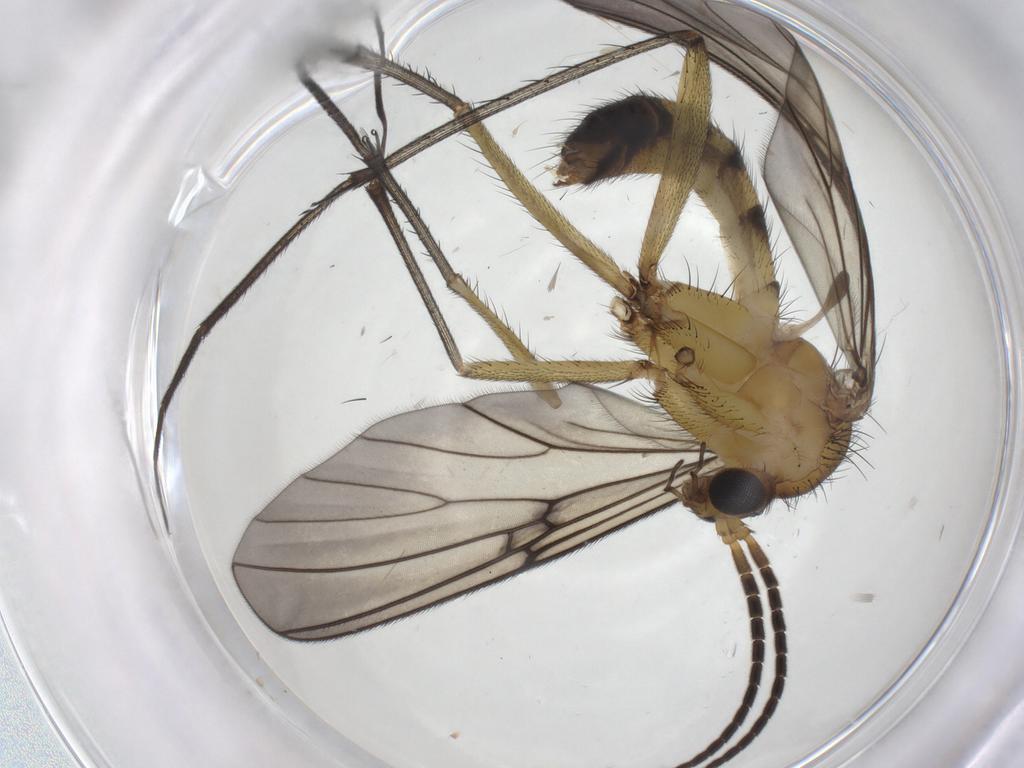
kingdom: Animalia
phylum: Arthropoda
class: Insecta
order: Diptera
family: Mycetophilidae
